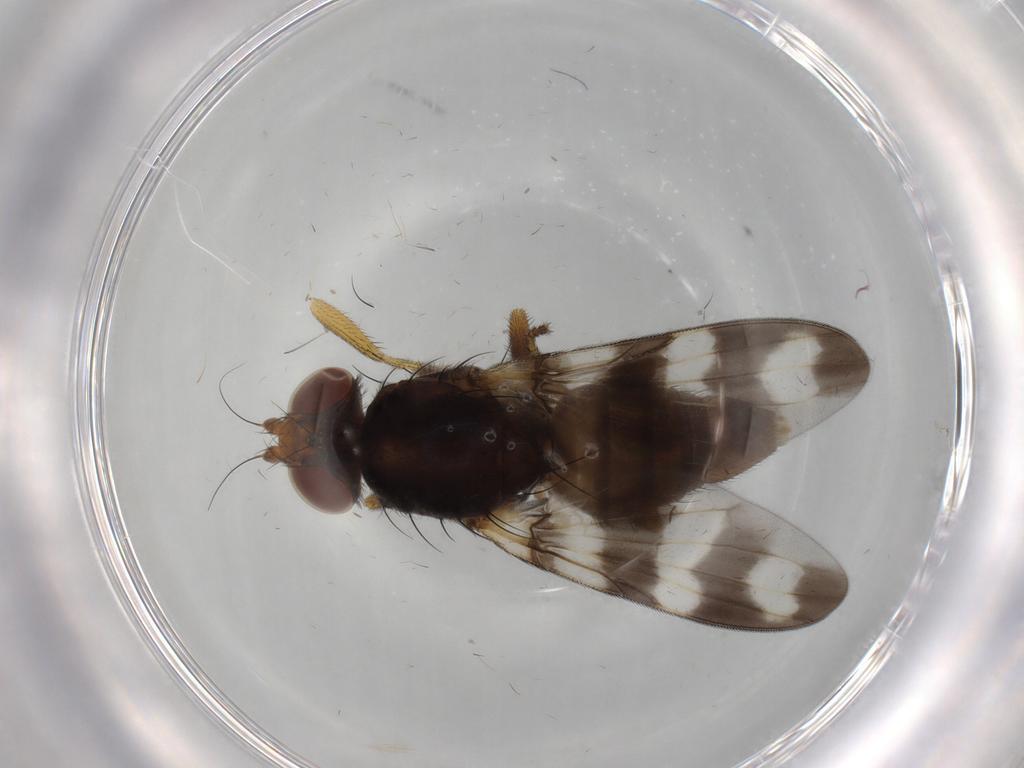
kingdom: Animalia
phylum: Arthropoda
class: Insecta
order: Diptera
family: Ulidiidae
